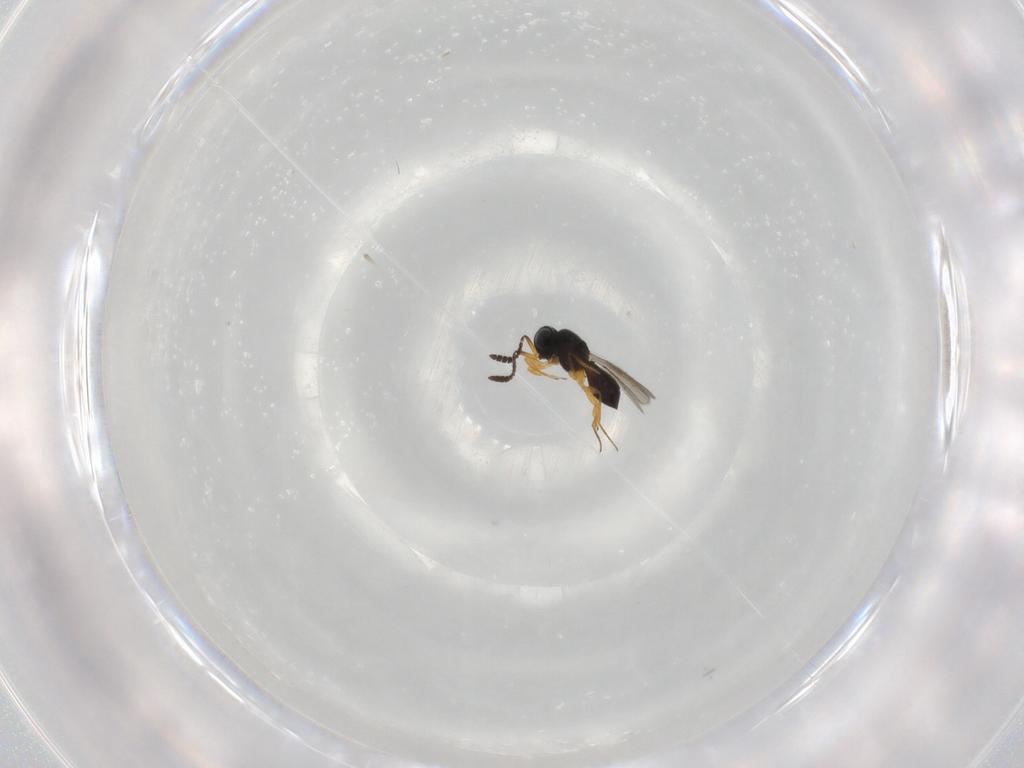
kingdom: Animalia
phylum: Arthropoda
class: Insecta
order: Hymenoptera
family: Scelionidae
